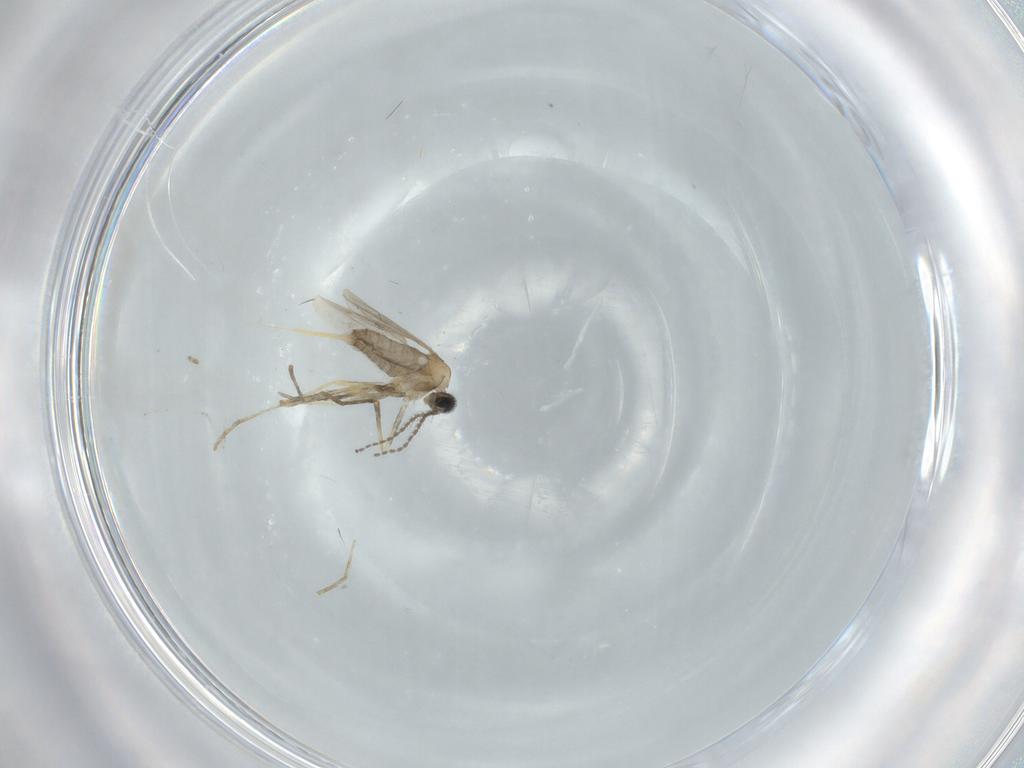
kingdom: Animalia
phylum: Arthropoda
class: Insecta
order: Diptera
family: Cecidomyiidae
